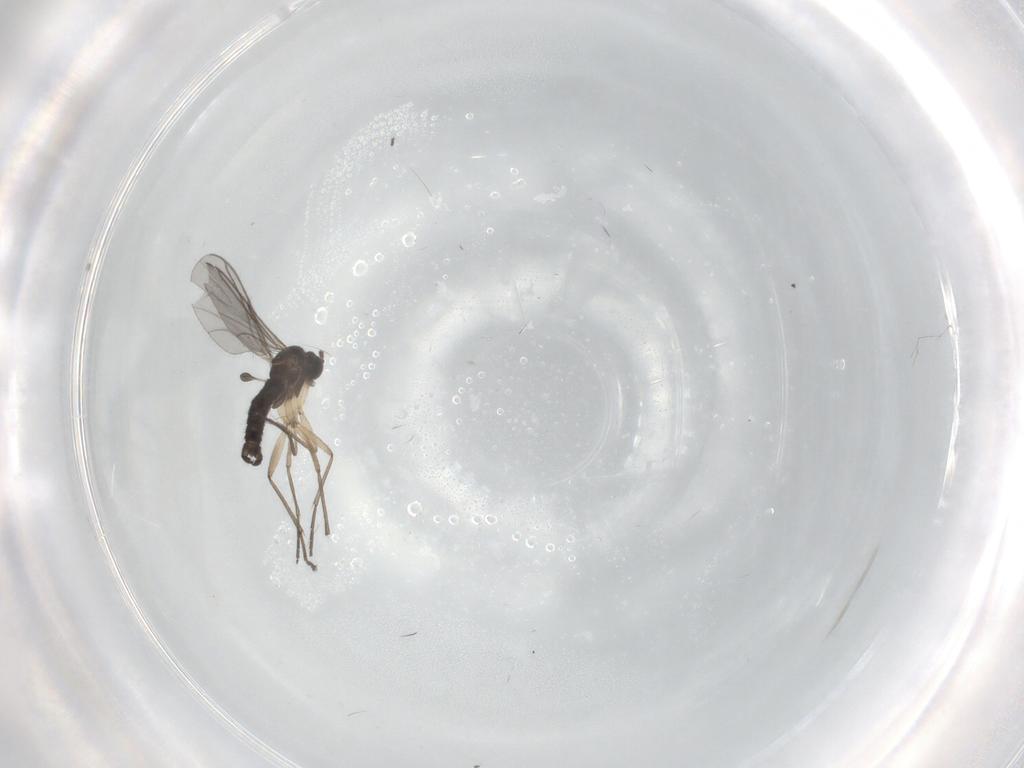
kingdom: Animalia
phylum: Arthropoda
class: Insecta
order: Diptera
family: Sciaridae
